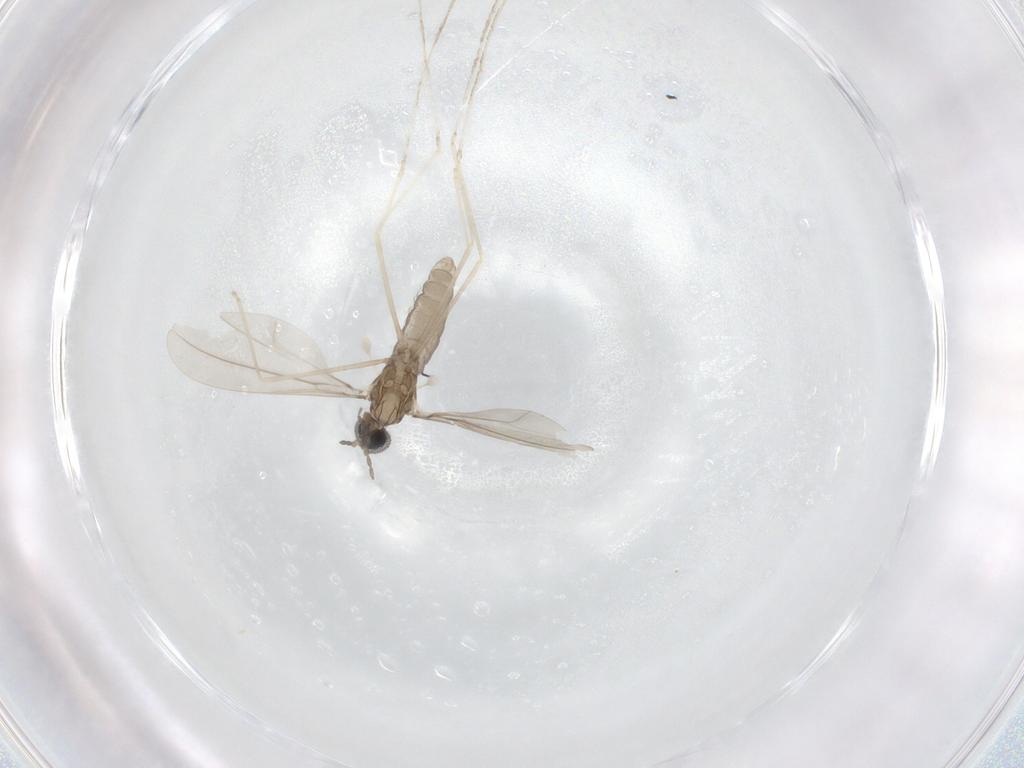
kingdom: Animalia
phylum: Arthropoda
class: Insecta
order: Diptera
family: Cecidomyiidae
